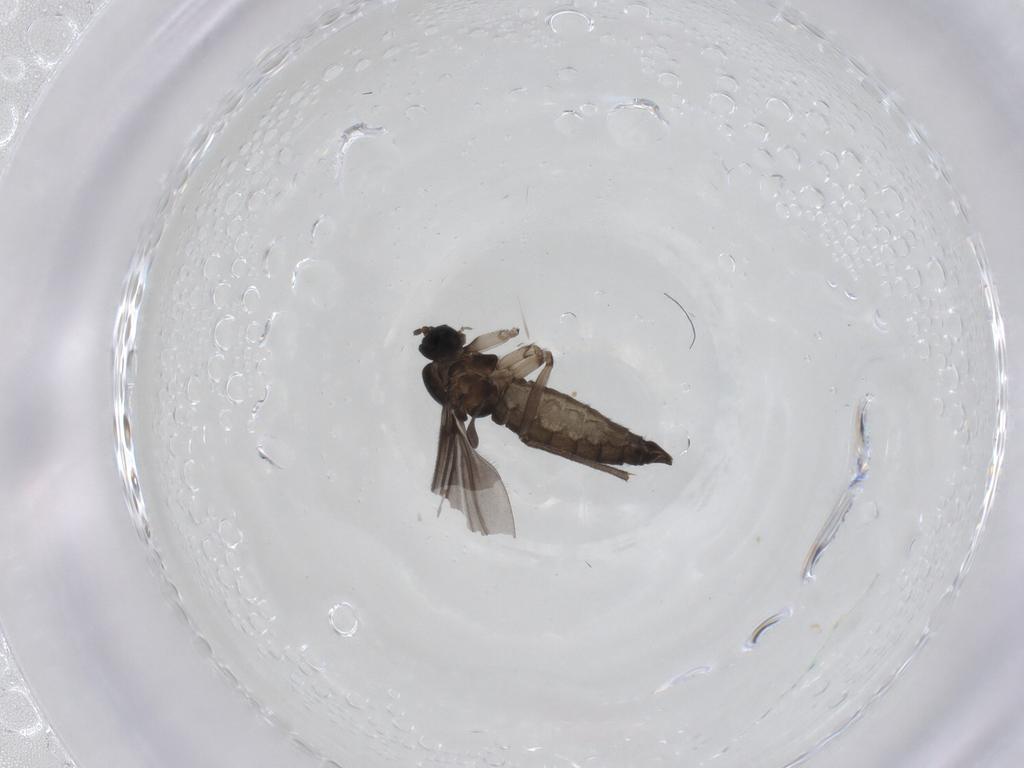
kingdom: Animalia
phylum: Arthropoda
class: Insecta
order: Diptera
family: Sciaridae
